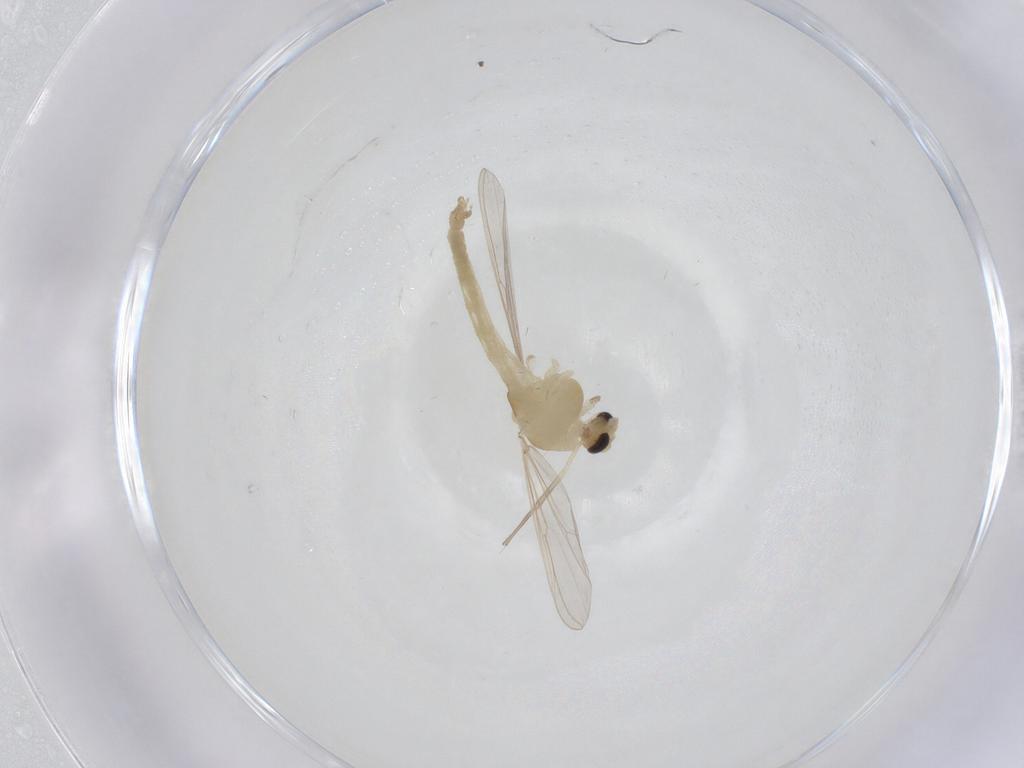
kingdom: Animalia
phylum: Arthropoda
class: Insecta
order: Diptera
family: Chironomidae
